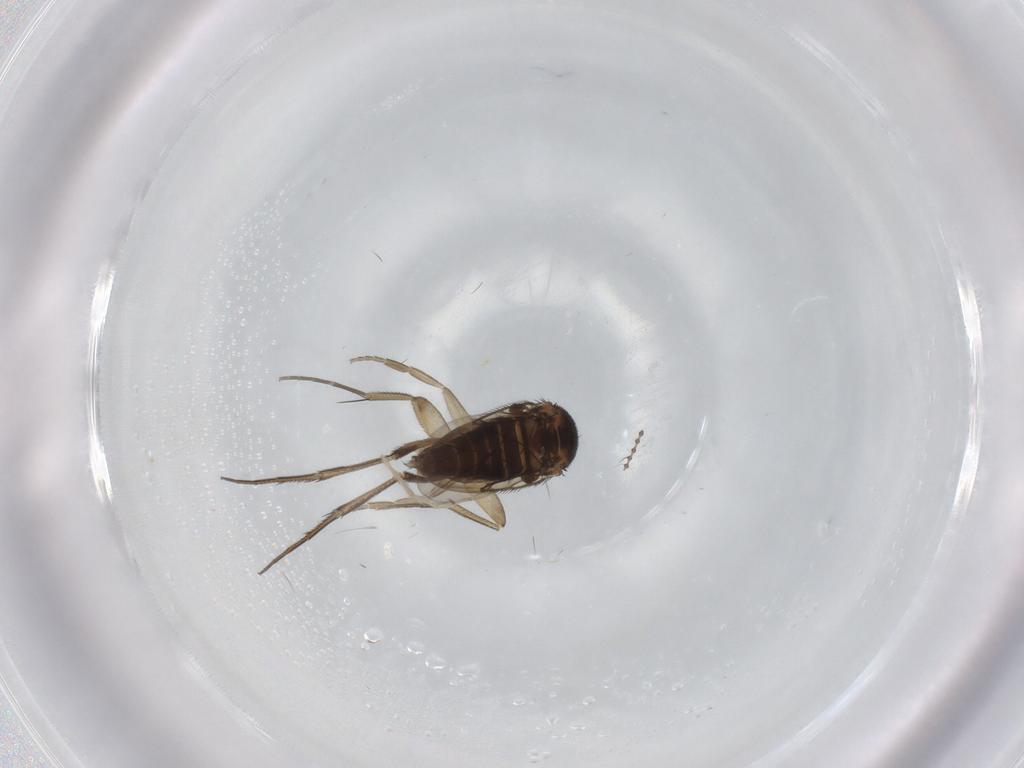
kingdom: Animalia
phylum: Arthropoda
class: Insecta
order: Diptera
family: Phoridae
